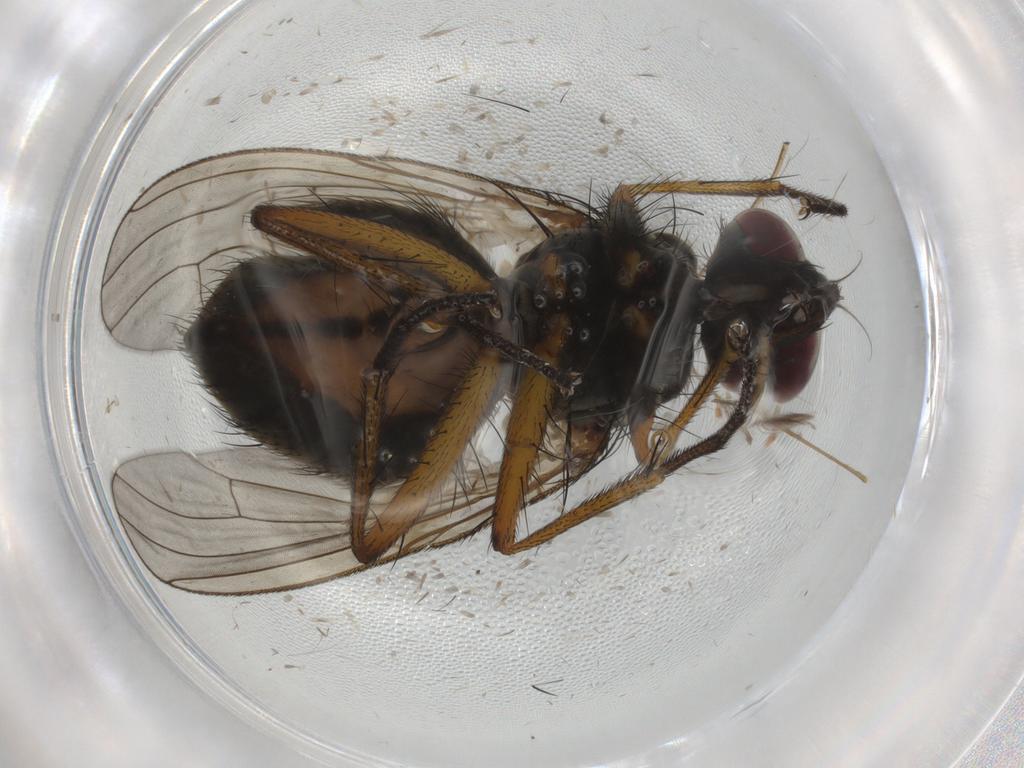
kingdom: Animalia
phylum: Arthropoda
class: Insecta
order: Diptera
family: Muscidae
